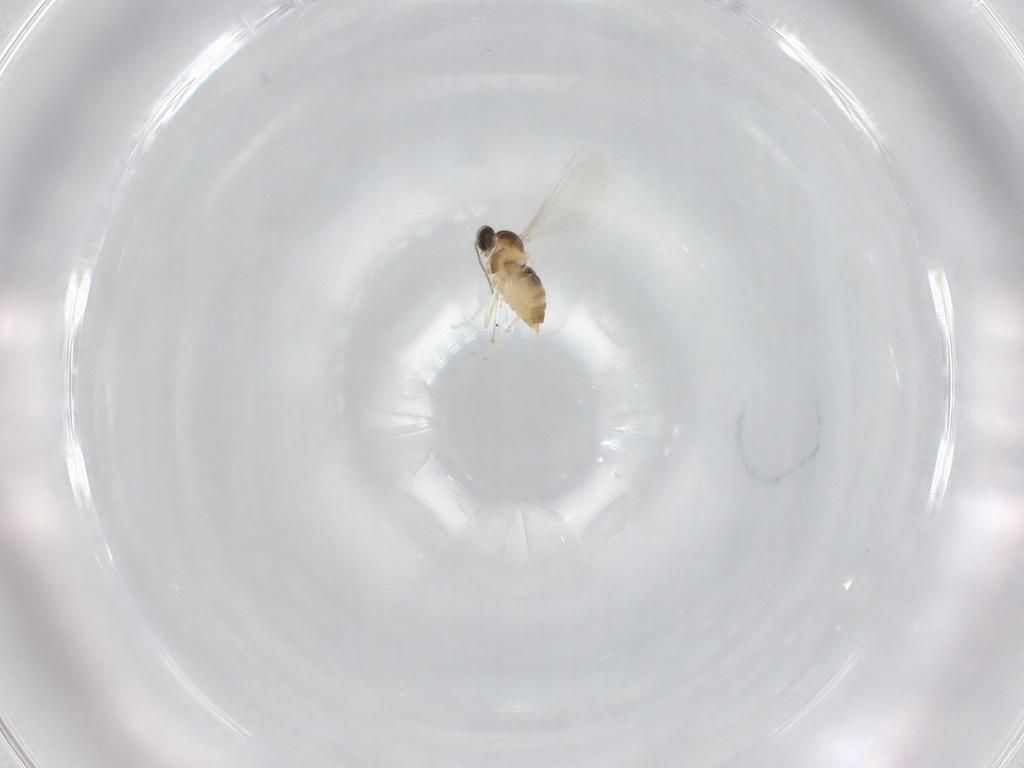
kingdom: Animalia
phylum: Arthropoda
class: Insecta
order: Diptera
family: Cecidomyiidae
